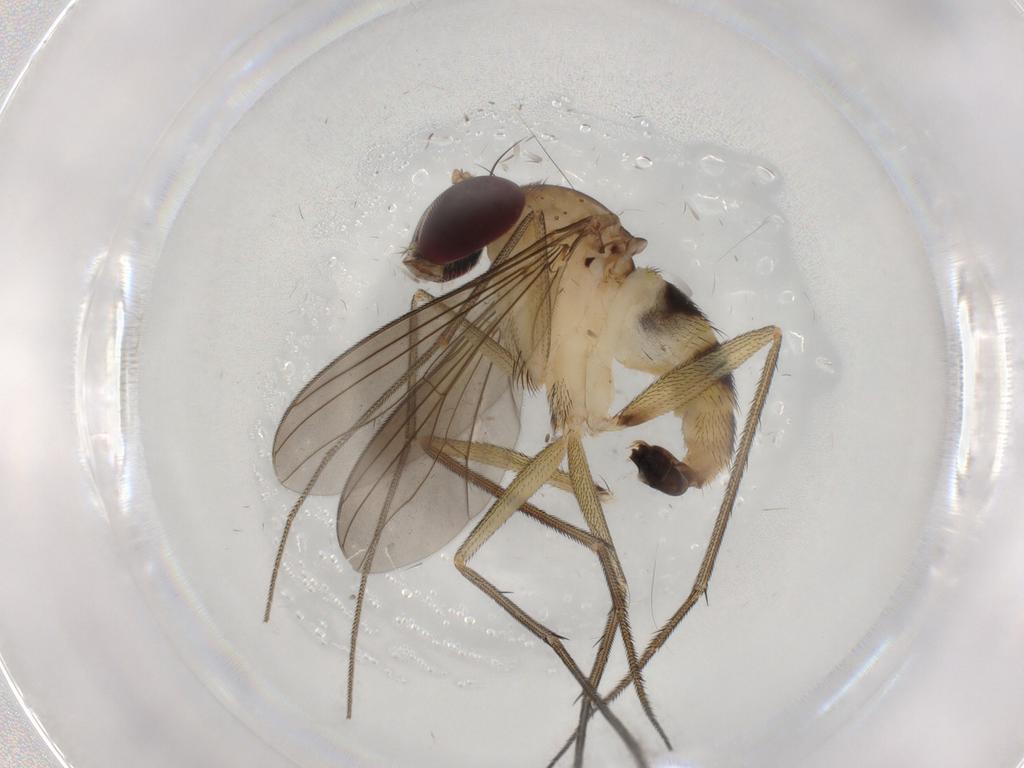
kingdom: Animalia
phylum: Arthropoda
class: Insecta
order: Diptera
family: Dolichopodidae
